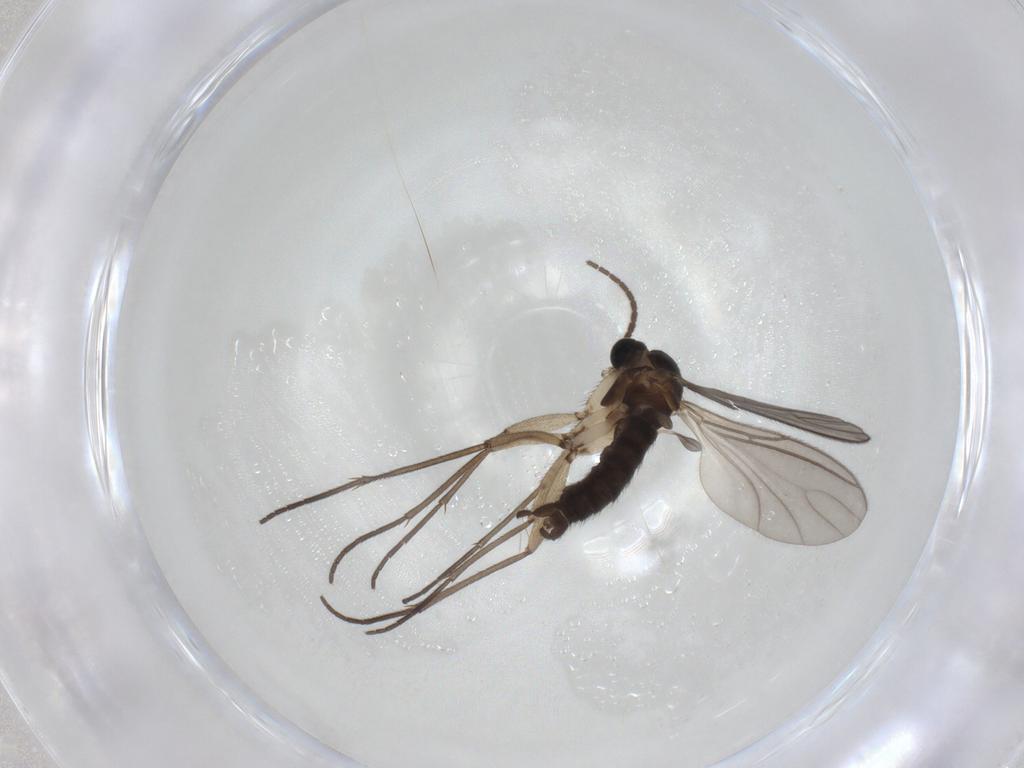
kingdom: Animalia
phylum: Arthropoda
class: Insecta
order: Diptera
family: Sciaridae
